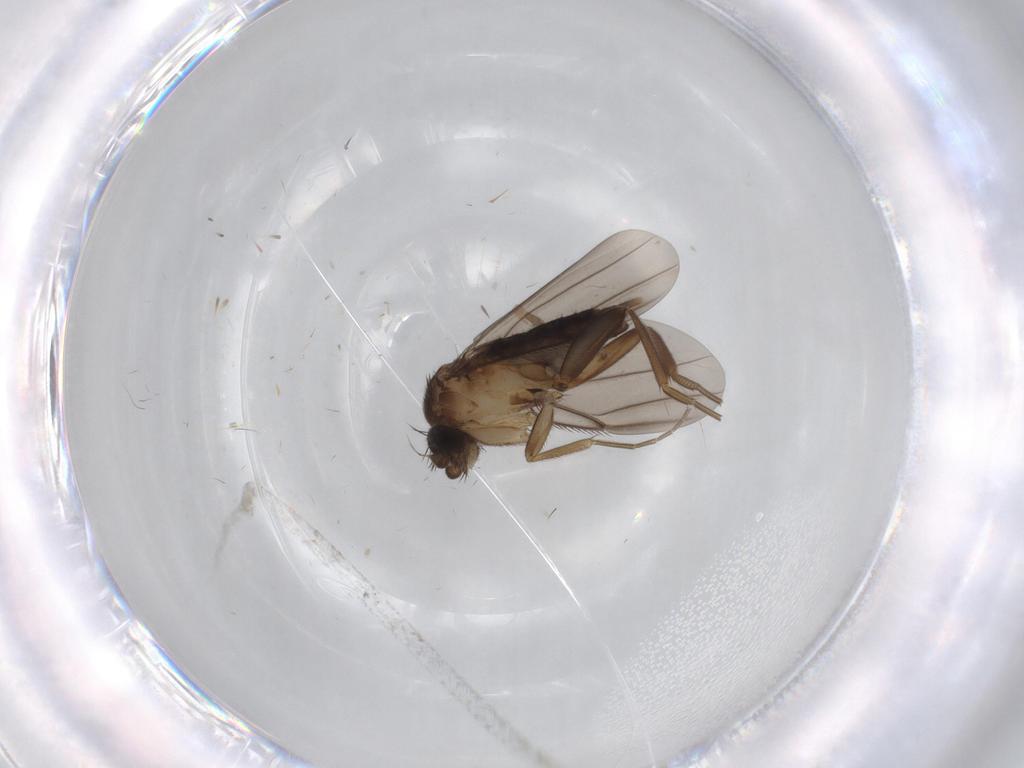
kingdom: Animalia
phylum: Arthropoda
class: Insecta
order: Diptera
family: Phoridae
